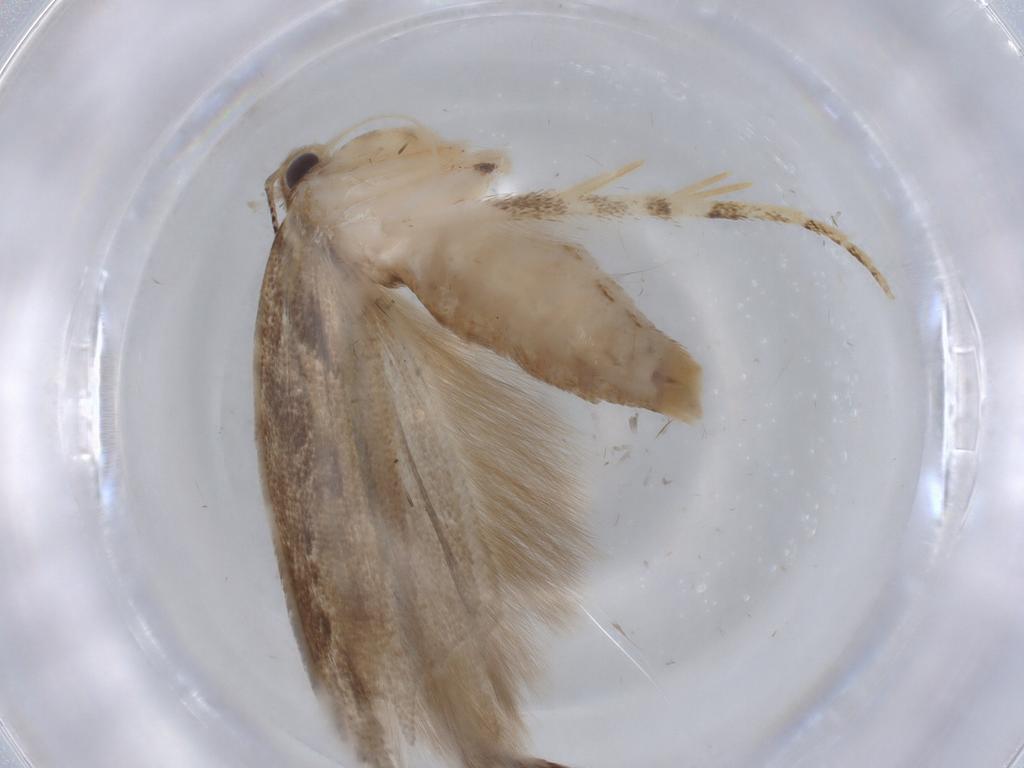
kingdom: Animalia
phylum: Arthropoda
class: Insecta
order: Lepidoptera
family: Gelechiidae
